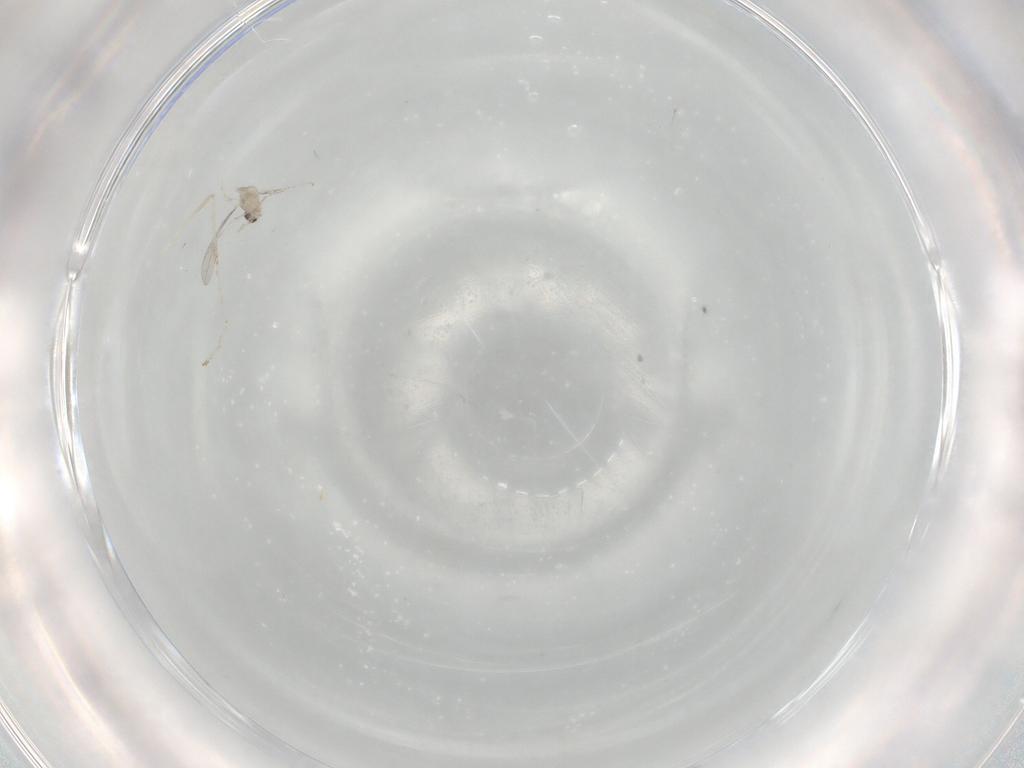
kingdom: Animalia
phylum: Arthropoda
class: Insecta
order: Diptera
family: Cecidomyiidae
